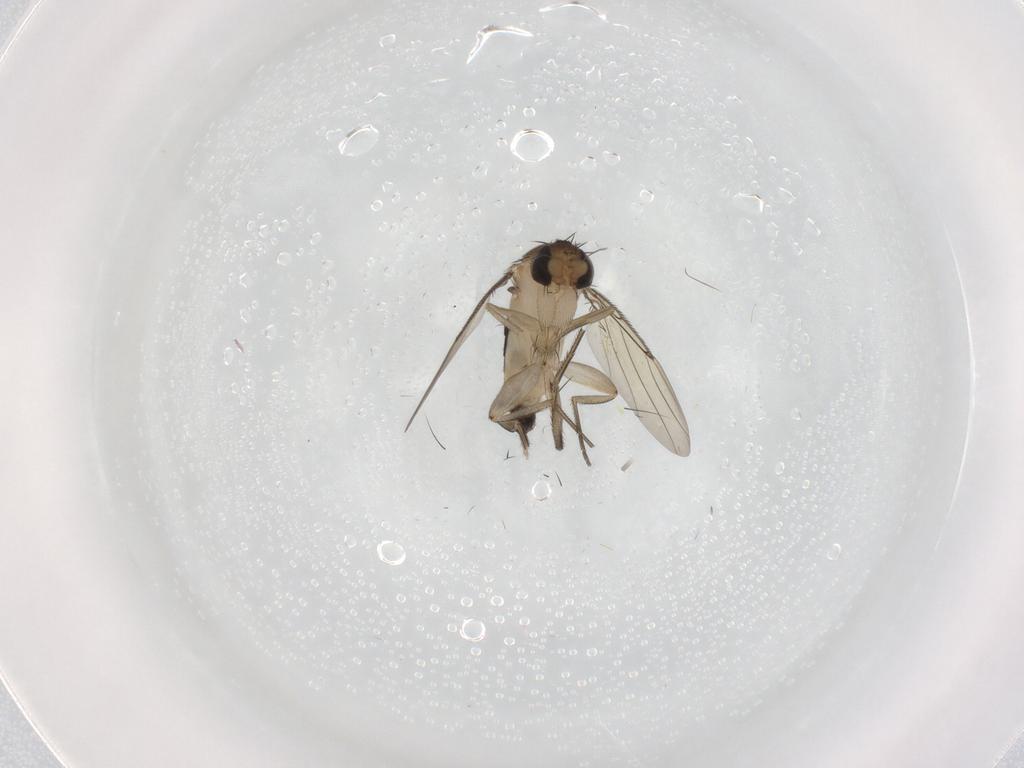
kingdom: Animalia
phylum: Arthropoda
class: Insecta
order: Diptera
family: Phoridae
